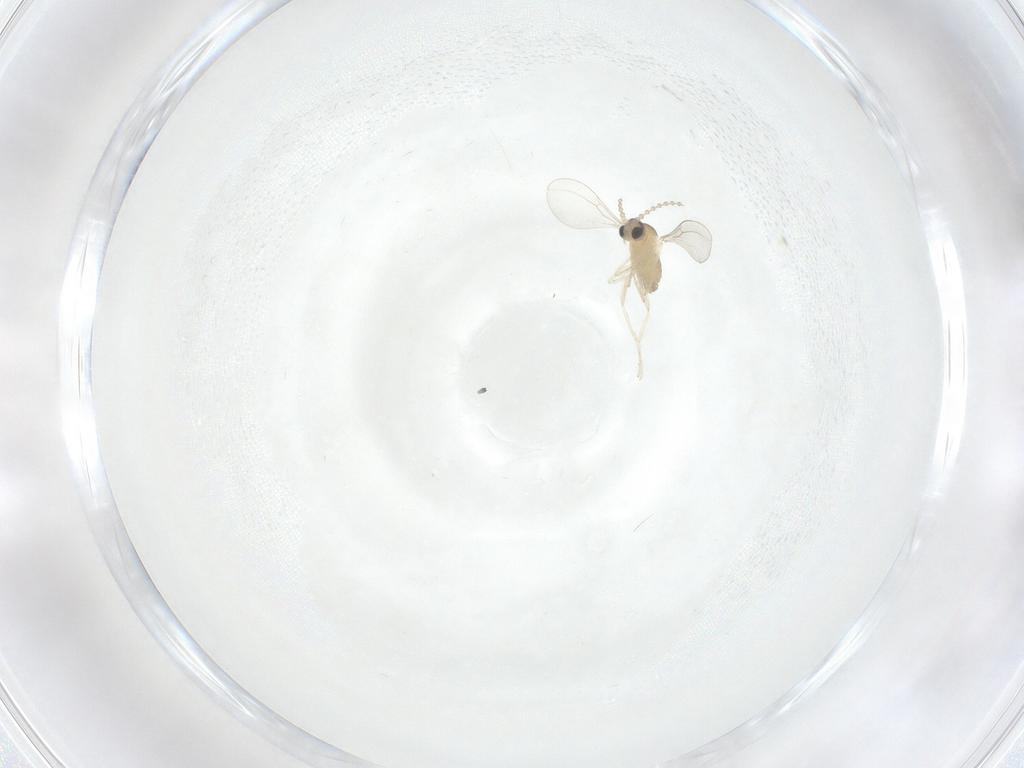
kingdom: Animalia
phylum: Arthropoda
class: Insecta
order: Diptera
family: Cecidomyiidae
